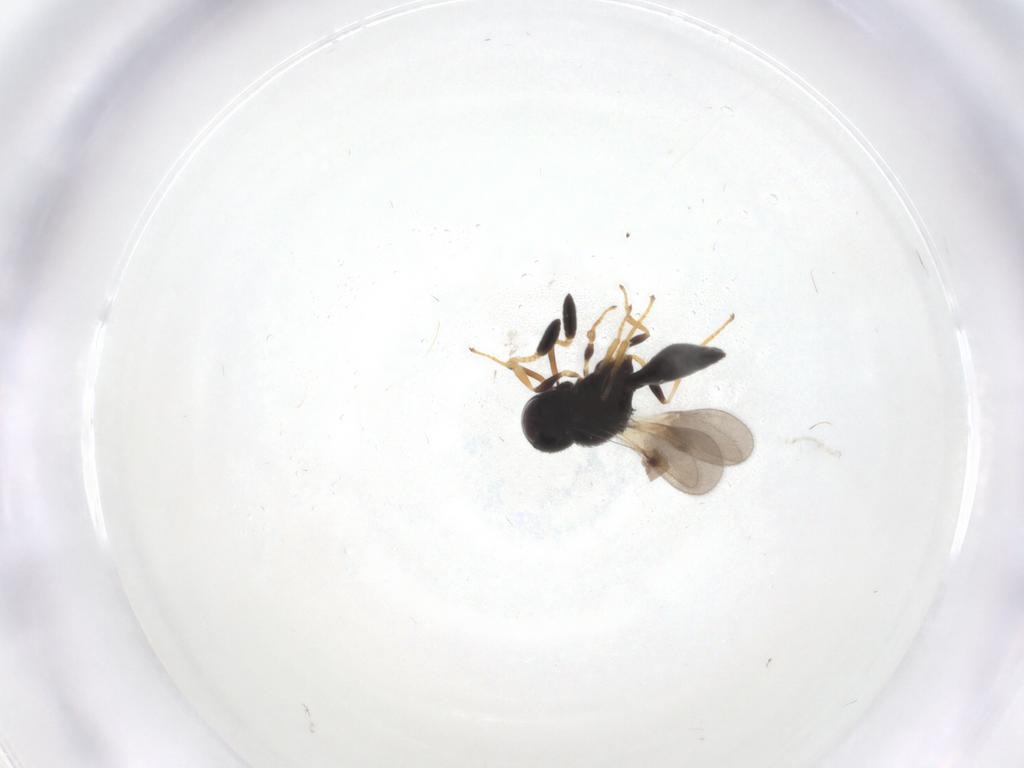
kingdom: Animalia
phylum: Arthropoda
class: Insecta
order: Hymenoptera
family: Scelionidae
